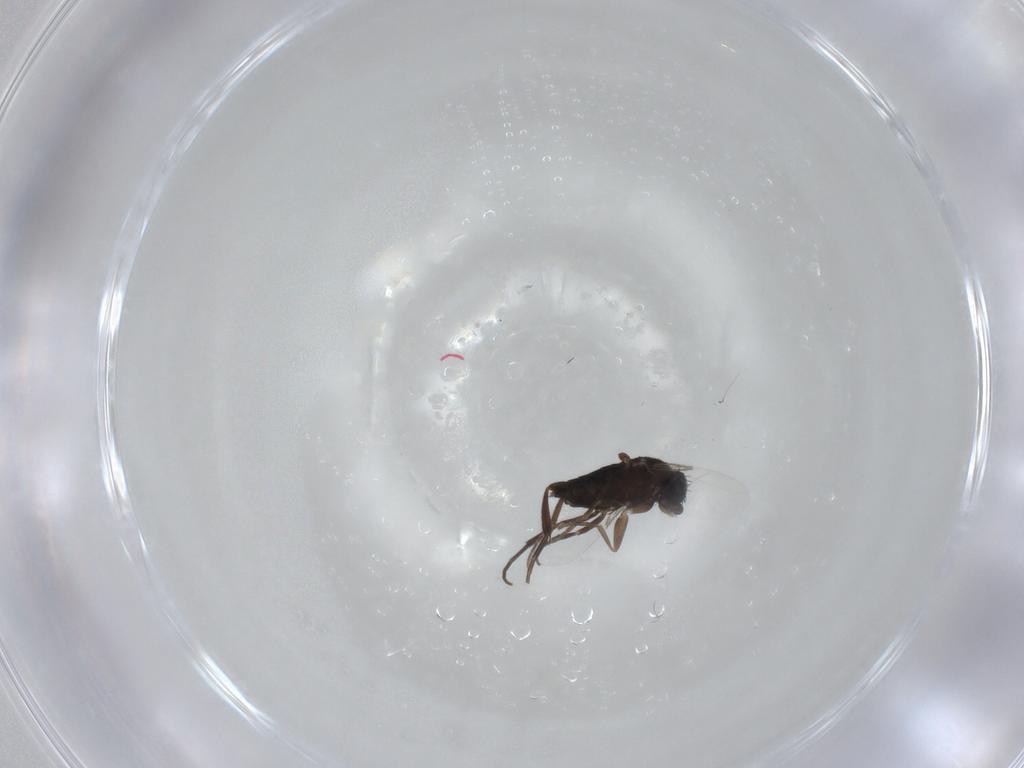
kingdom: Animalia
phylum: Arthropoda
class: Insecta
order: Diptera
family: Phoridae
